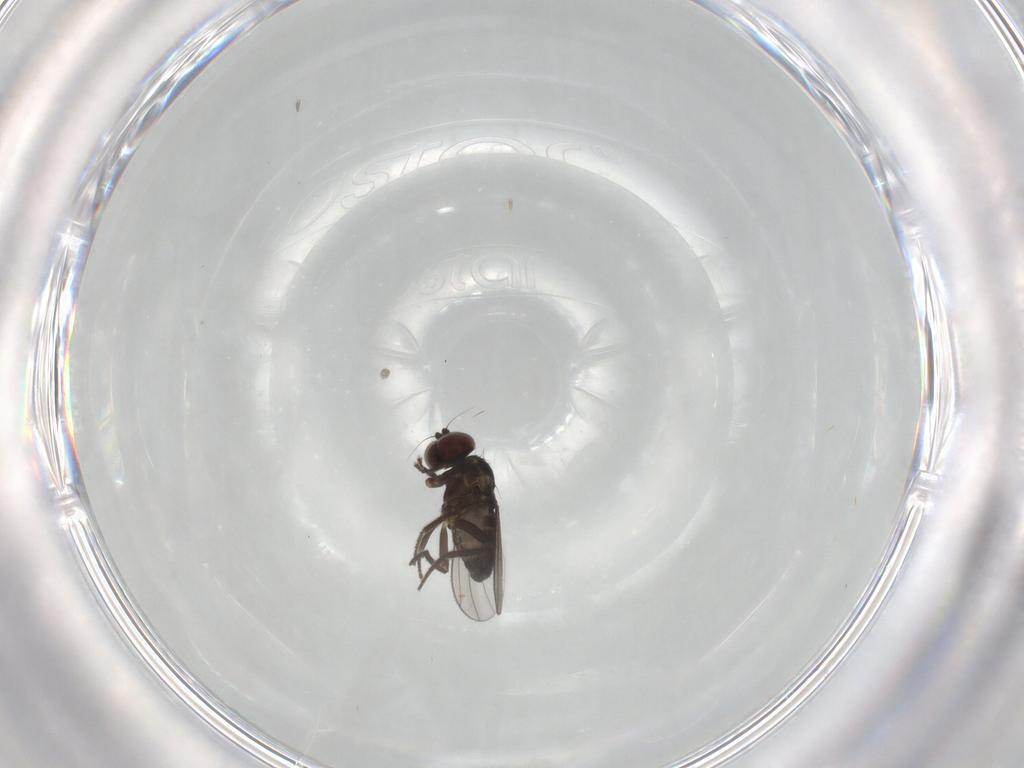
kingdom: Animalia
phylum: Arthropoda
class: Insecta
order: Diptera
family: Dolichopodidae
